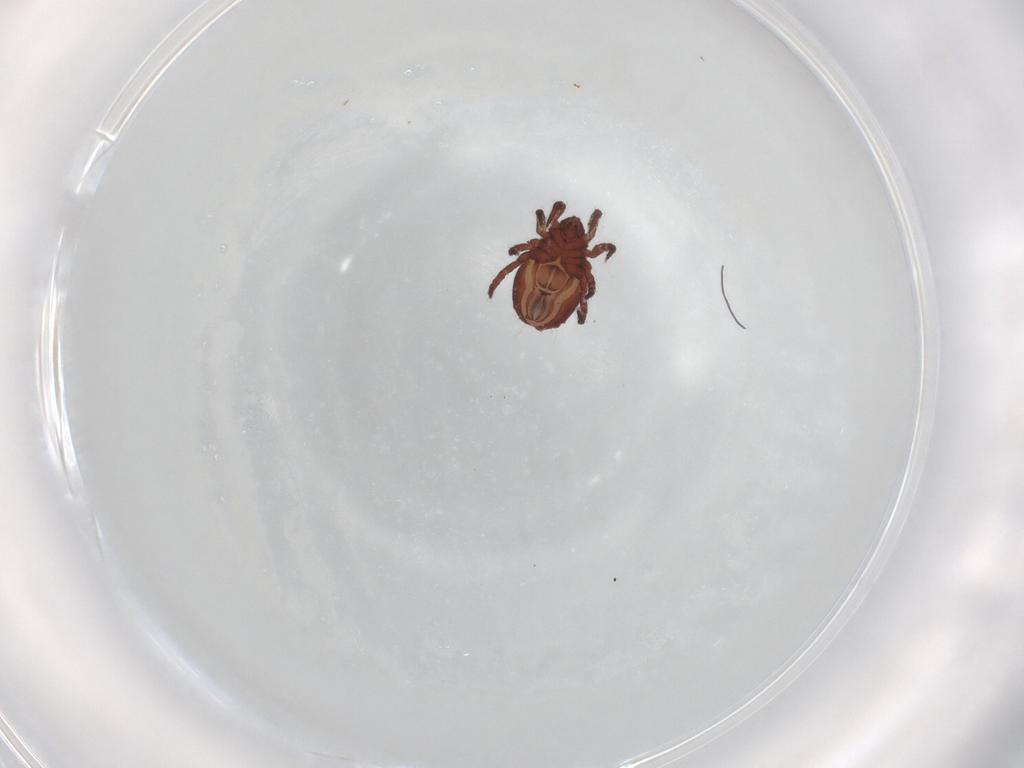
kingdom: Animalia
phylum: Arthropoda
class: Arachnida
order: Sarcoptiformes
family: Nothridae
